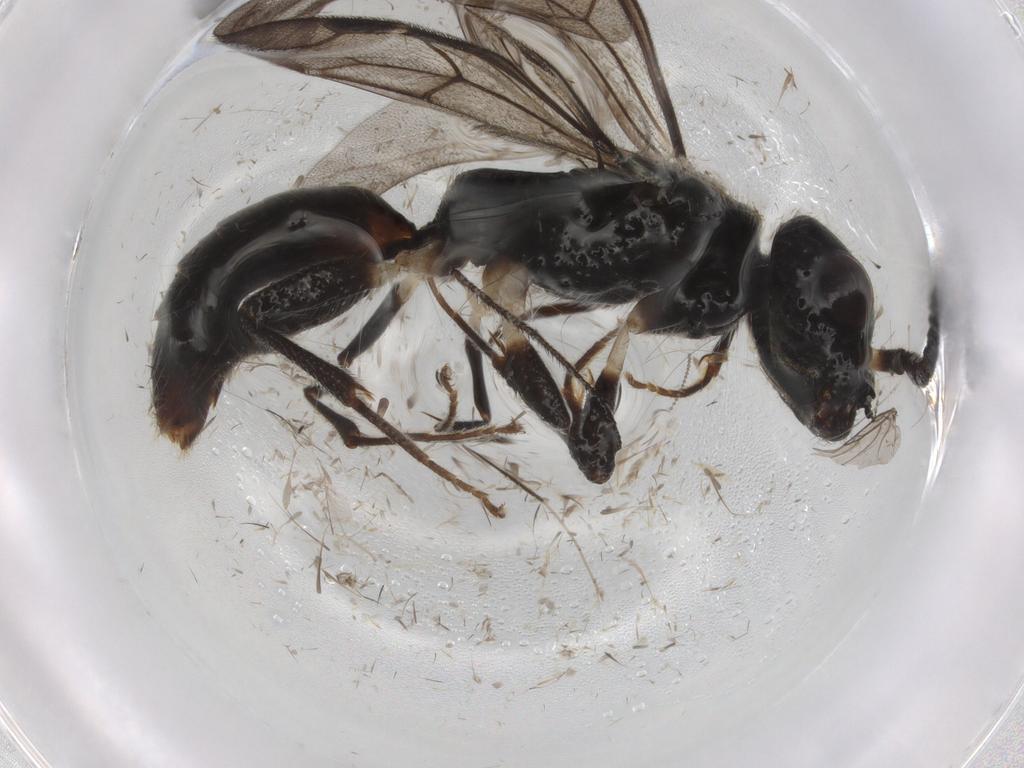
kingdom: Animalia
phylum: Arthropoda
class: Insecta
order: Hymenoptera
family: Bethylidae
